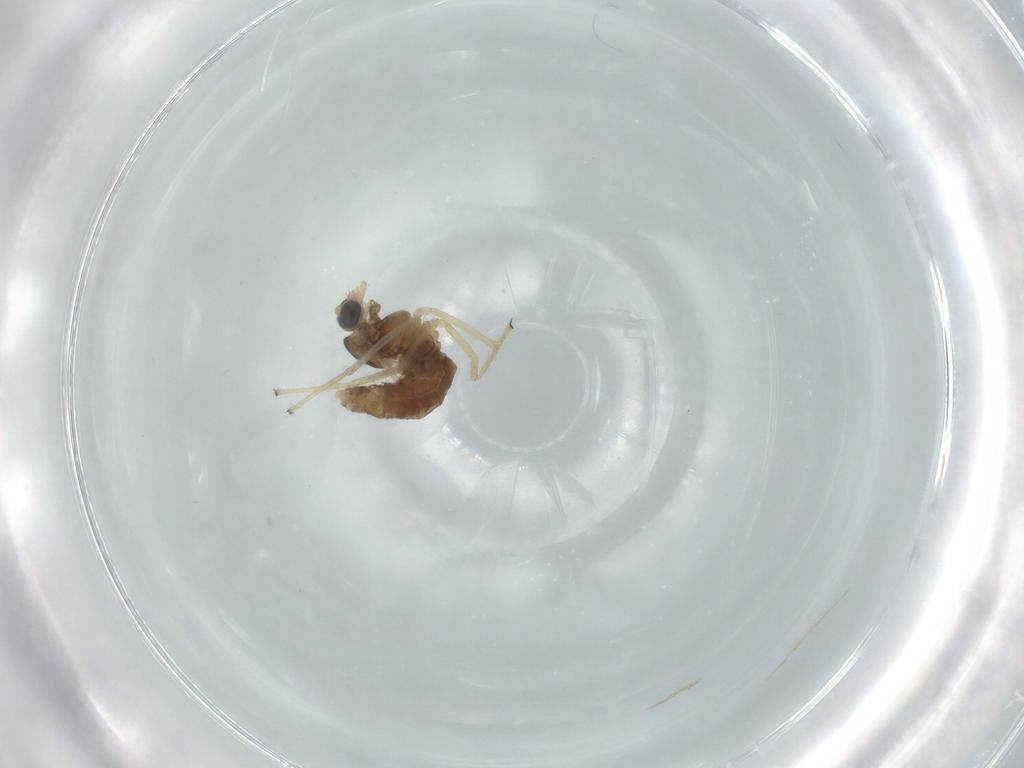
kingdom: Animalia
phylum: Arthropoda
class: Insecta
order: Diptera
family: Chironomidae
